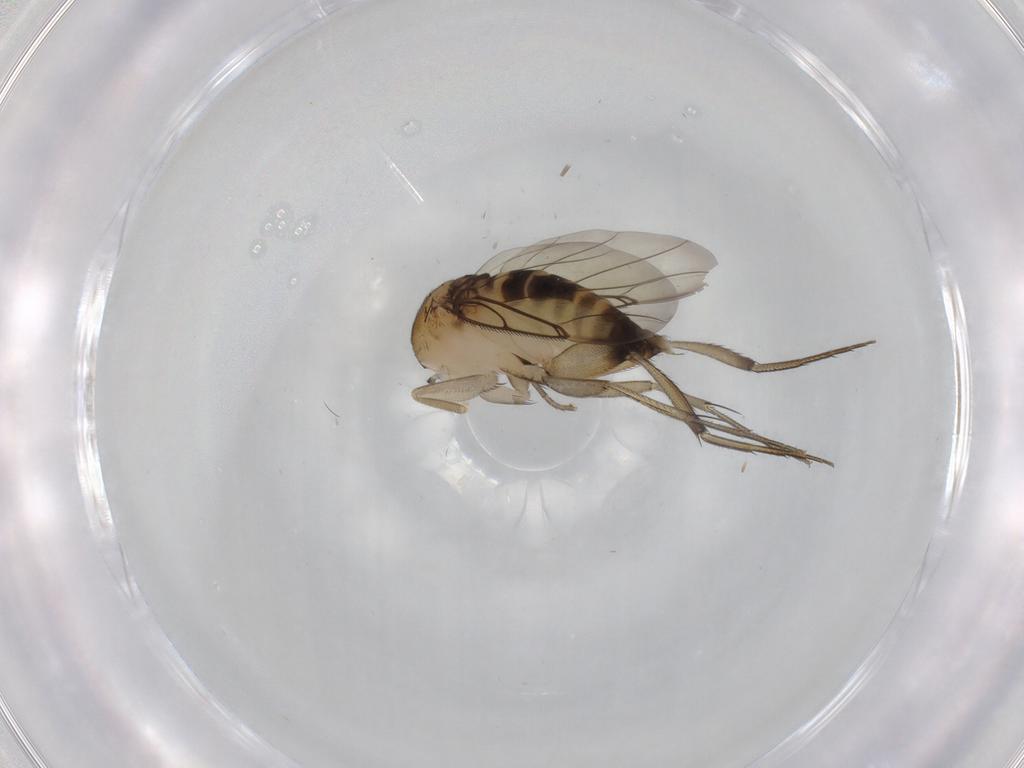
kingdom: Animalia
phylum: Arthropoda
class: Insecta
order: Diptera
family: Phoridae
